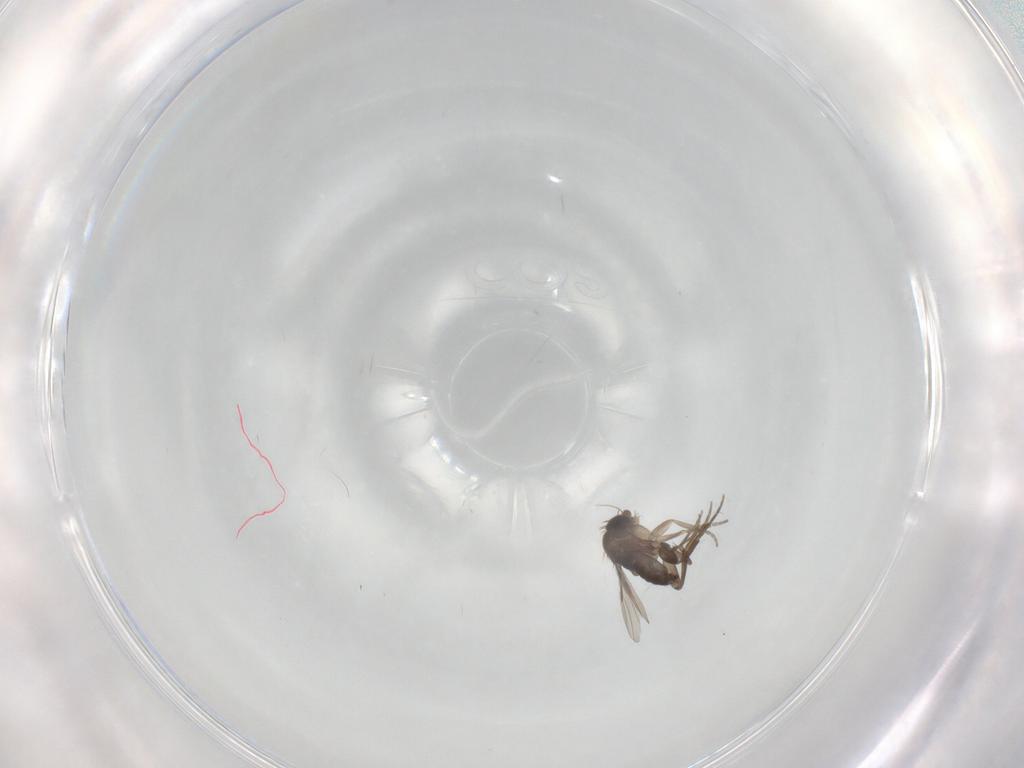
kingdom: Animalia
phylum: Arthropoda
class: Insecta
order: Diptera
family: Phoridae
